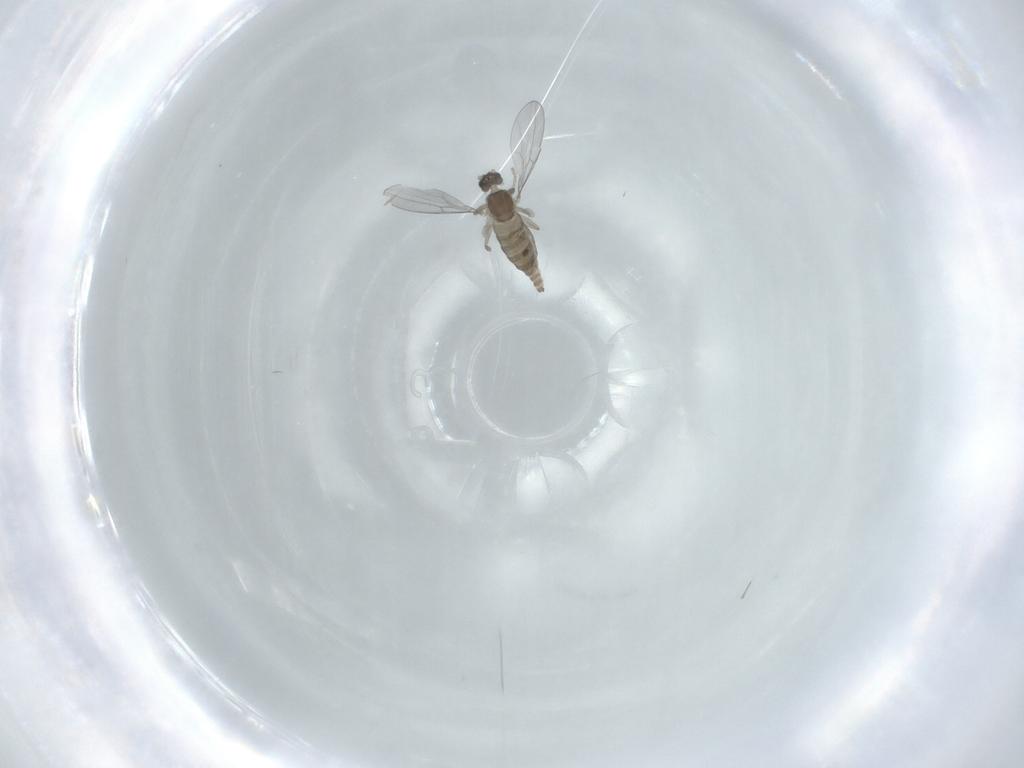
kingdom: Animalia
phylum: Arthropoda
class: Insecta
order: Diptera
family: Cecidomyiidae
